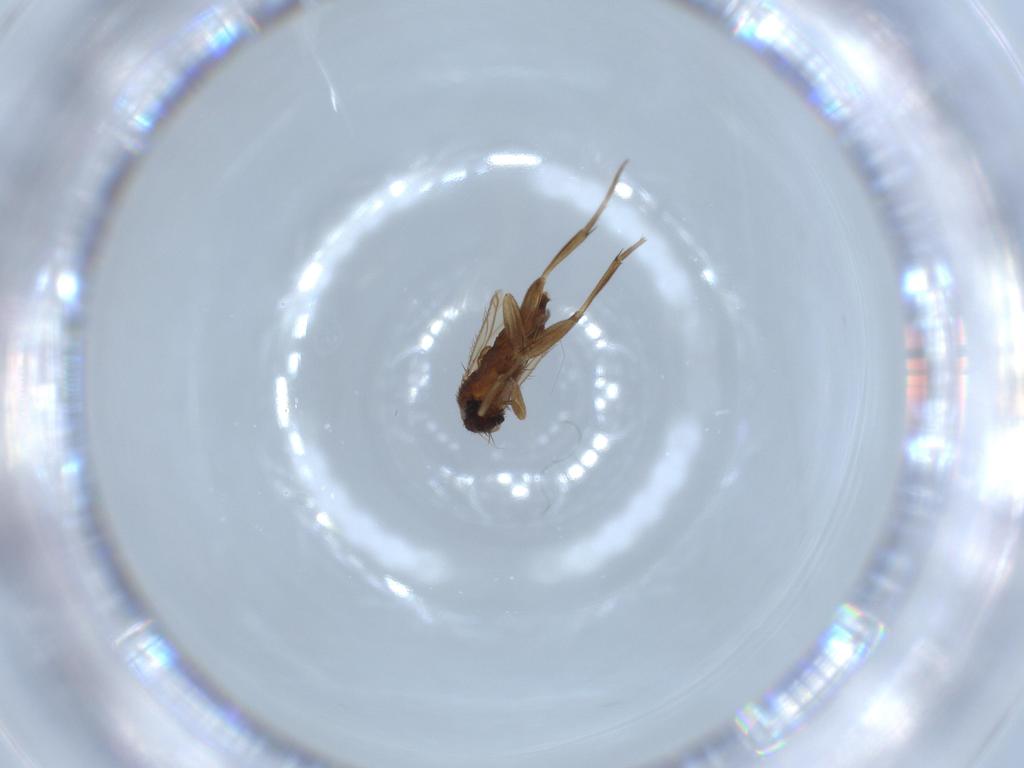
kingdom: Animalia
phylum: Arthropoda
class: Insecta
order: Diptera
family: Phoridae
